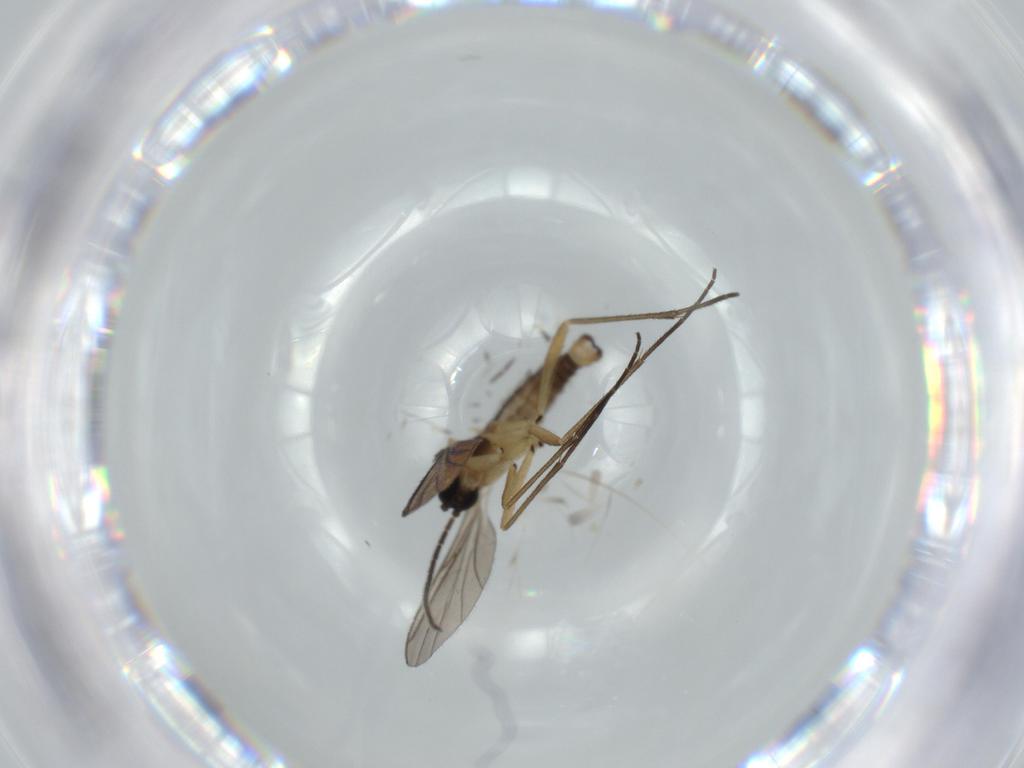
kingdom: Animalia
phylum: Arthropoda
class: Insecta
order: Diptera
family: Sciaridae
